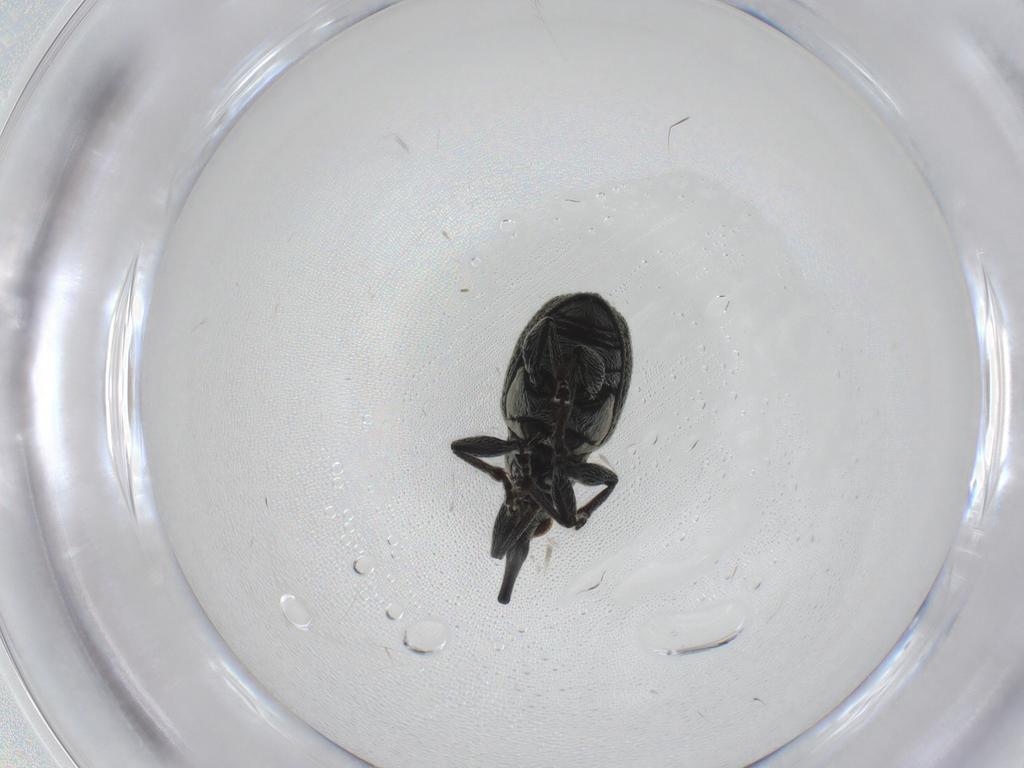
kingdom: Animalia
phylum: Arthropoda
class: Insecta
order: Coleoptera
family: Brentidae
